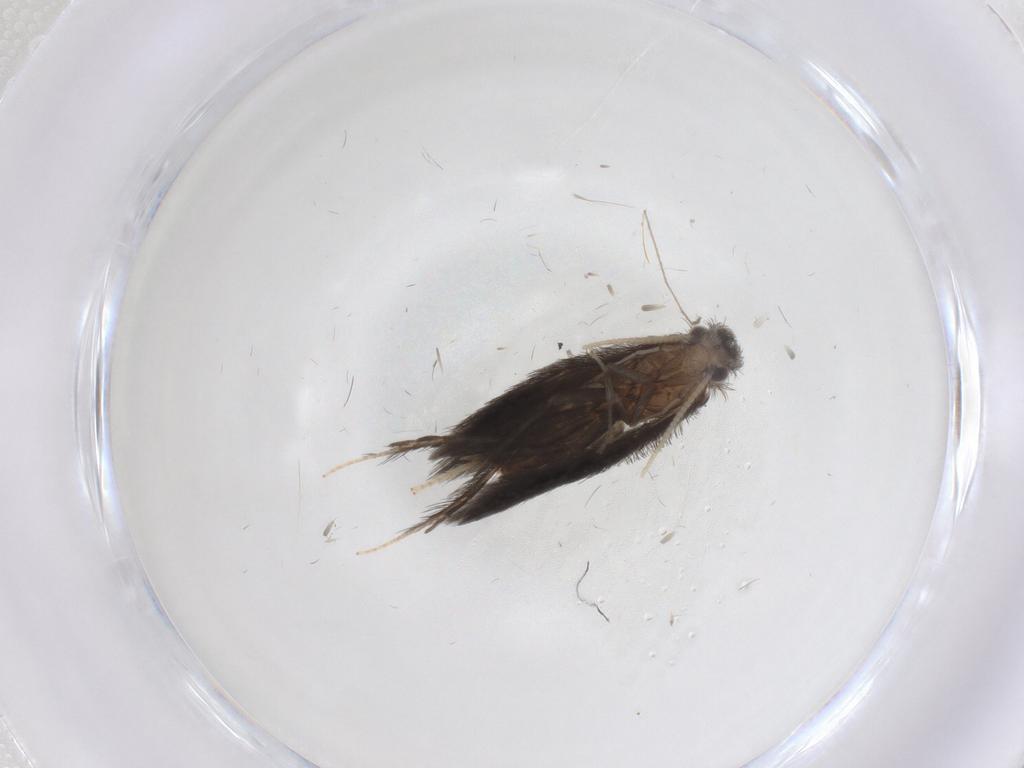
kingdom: Animalia
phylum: Arthropoda
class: Insecta
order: Trichoptera
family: Hydroptilidae
